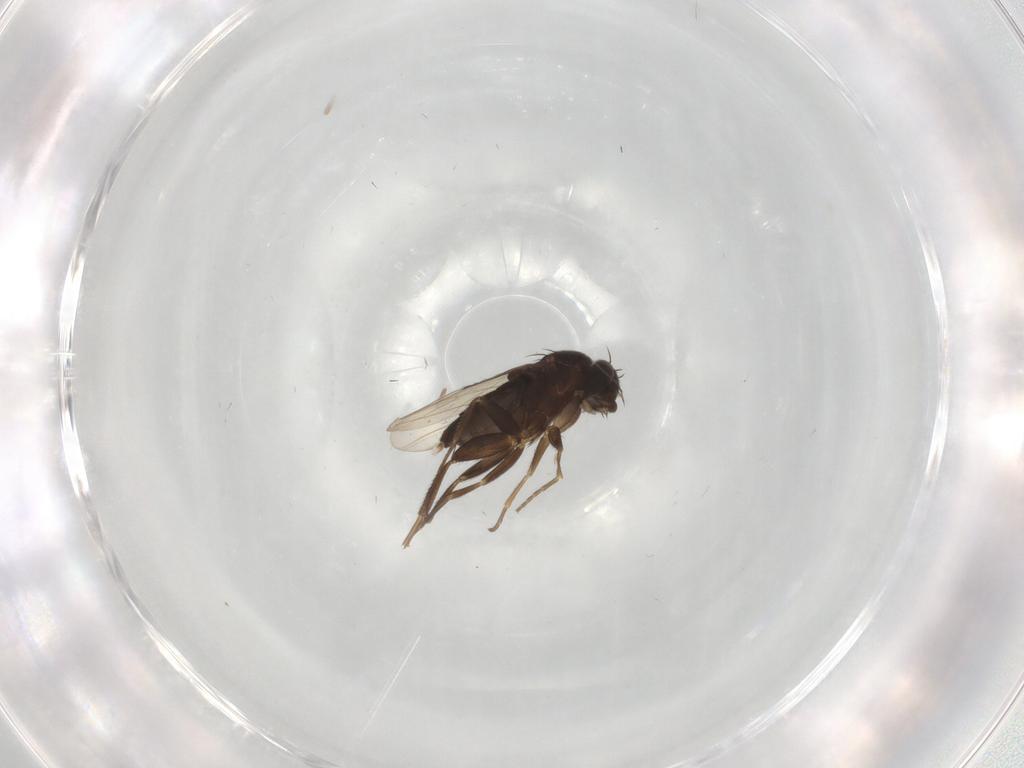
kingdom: Animalia
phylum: Arthropoda
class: Insecta
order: Diptera
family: Phoridae
